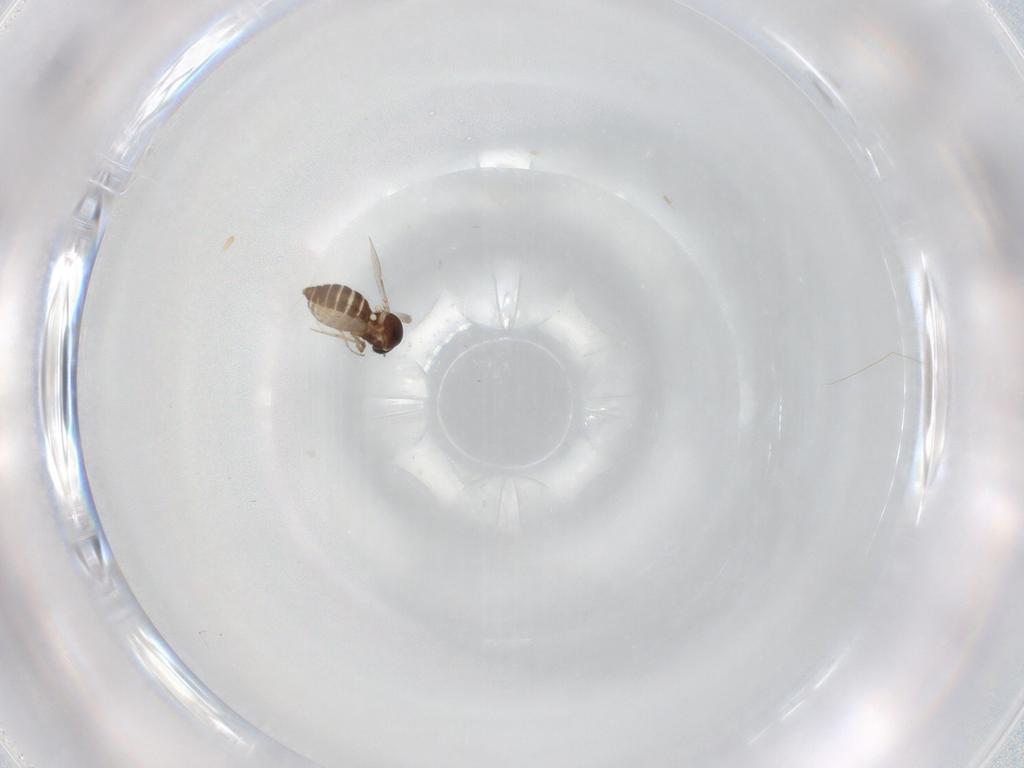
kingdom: Animalia
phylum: Arthropoda
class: Insecta
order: Diptera
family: Ceratopogonidae
